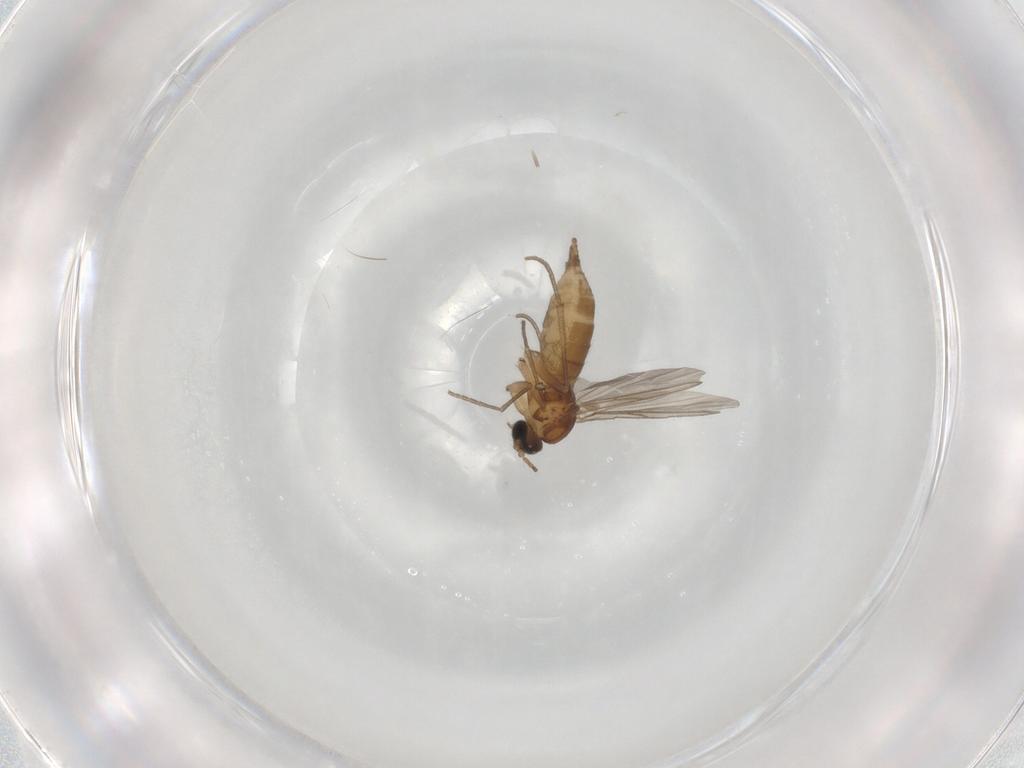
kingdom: Animalia
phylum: Arthropoda
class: Insecta
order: Diptera
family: Sciaridae
